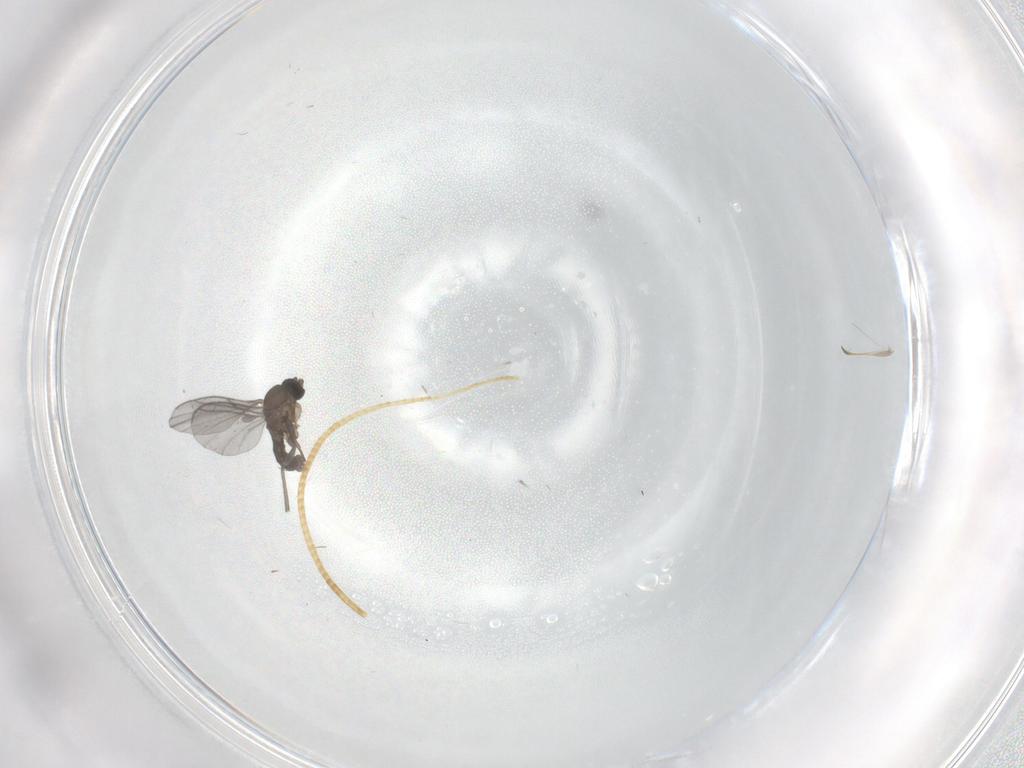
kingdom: Animalia
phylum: Arthropoda
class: Insecta
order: Diptera
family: Sciaridae
